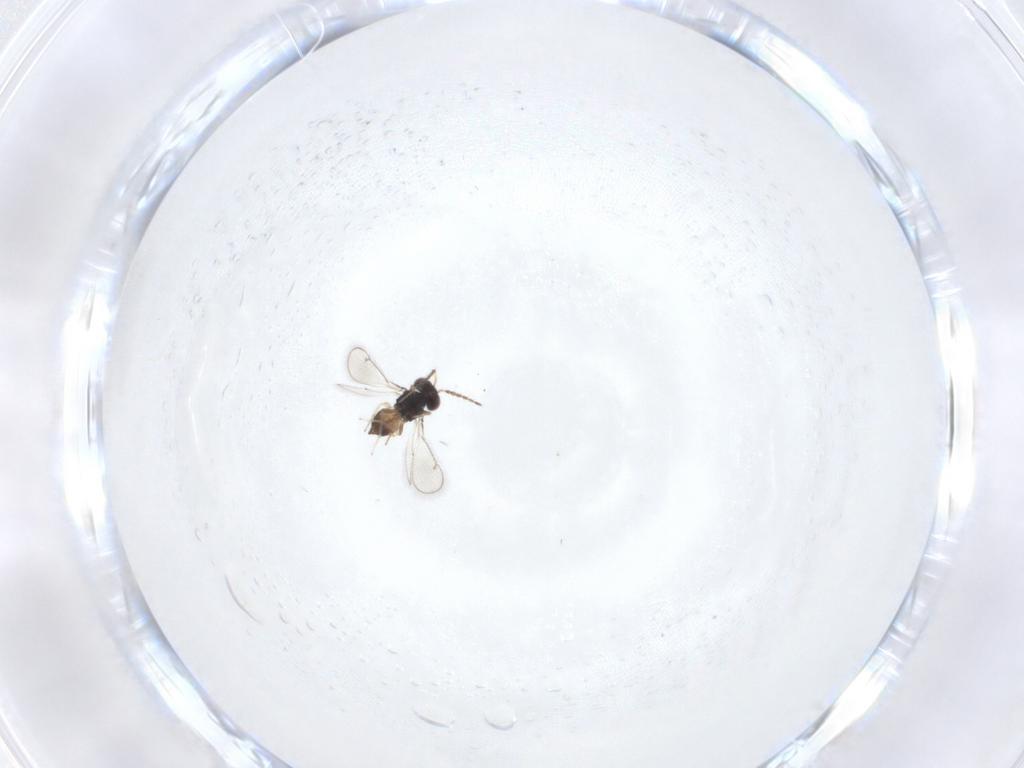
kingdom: Animalia
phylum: Arthropoda
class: Insecta
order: Hymenoptera
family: Eulophidae
